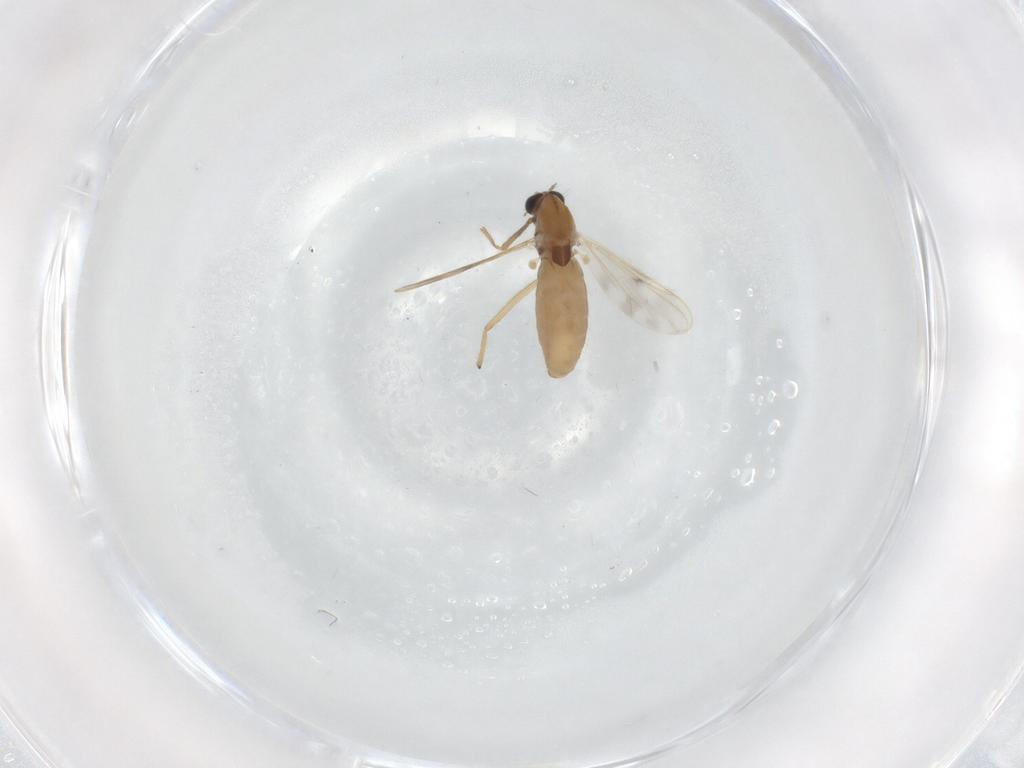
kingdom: Animalia
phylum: Arthropoda
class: Insecta
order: Diptera
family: Chironomidae
